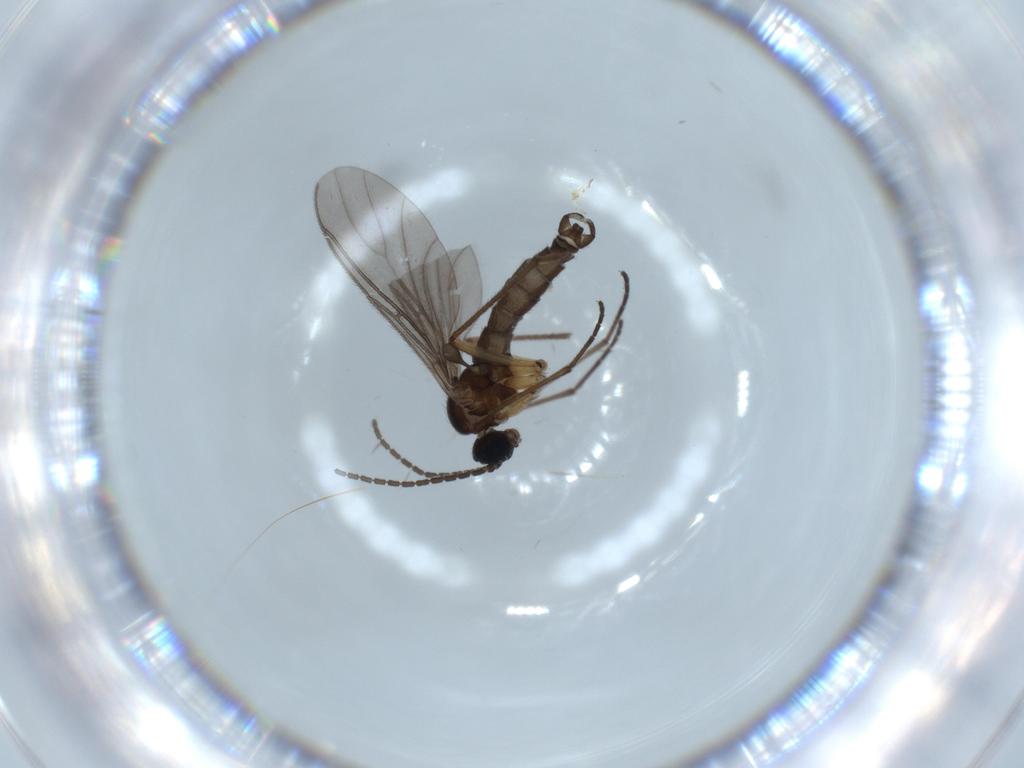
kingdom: Animalia
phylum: Arthropoda
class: Insecta
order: Diptera
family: Sciaridae
